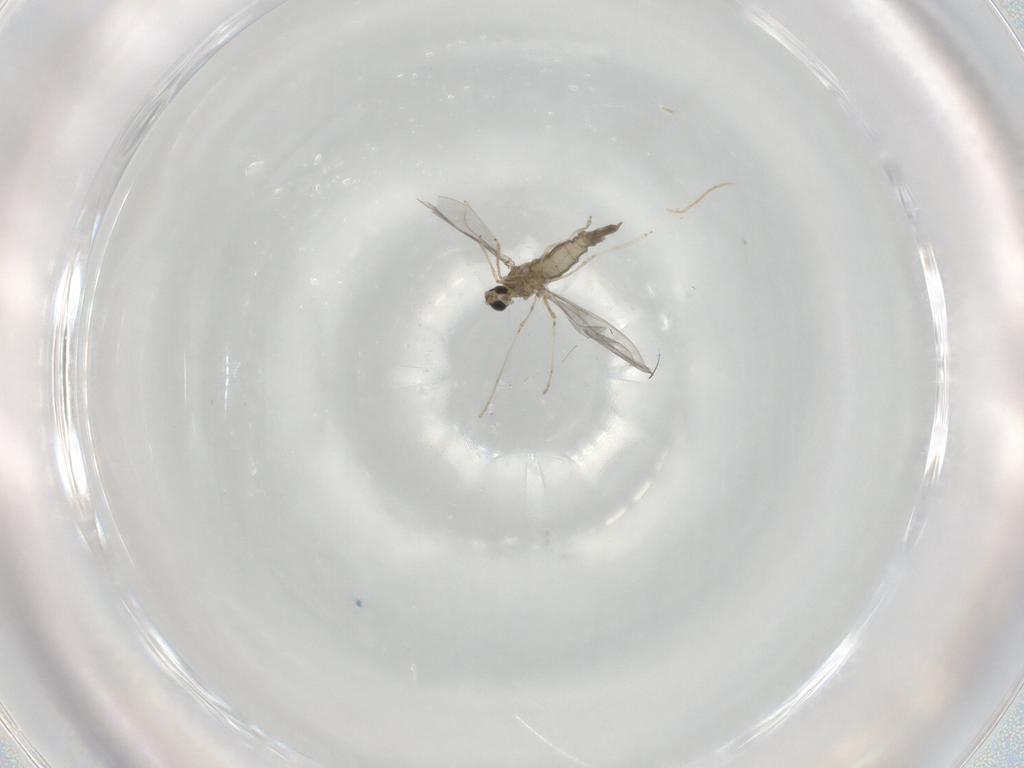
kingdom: Animalia
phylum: Arthropoda
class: Insecta
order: Diptera
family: Cecidomyiidae
